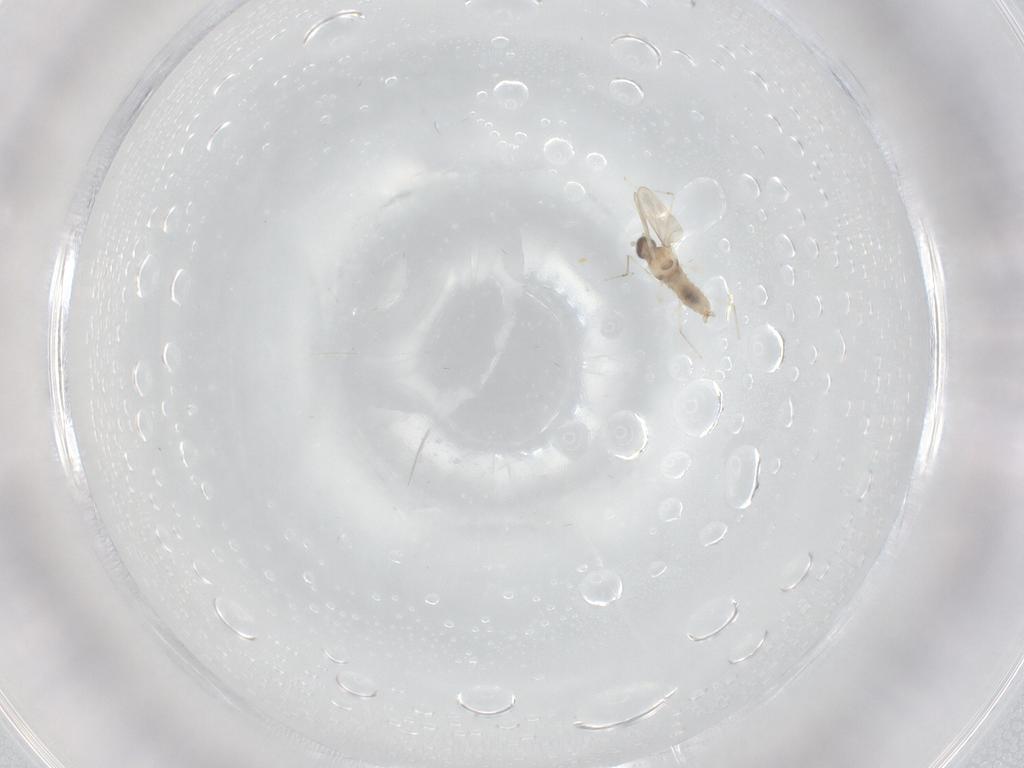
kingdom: Animalia
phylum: Arthropoda
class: Insecta
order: Diptera
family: Cecidomyiidae
